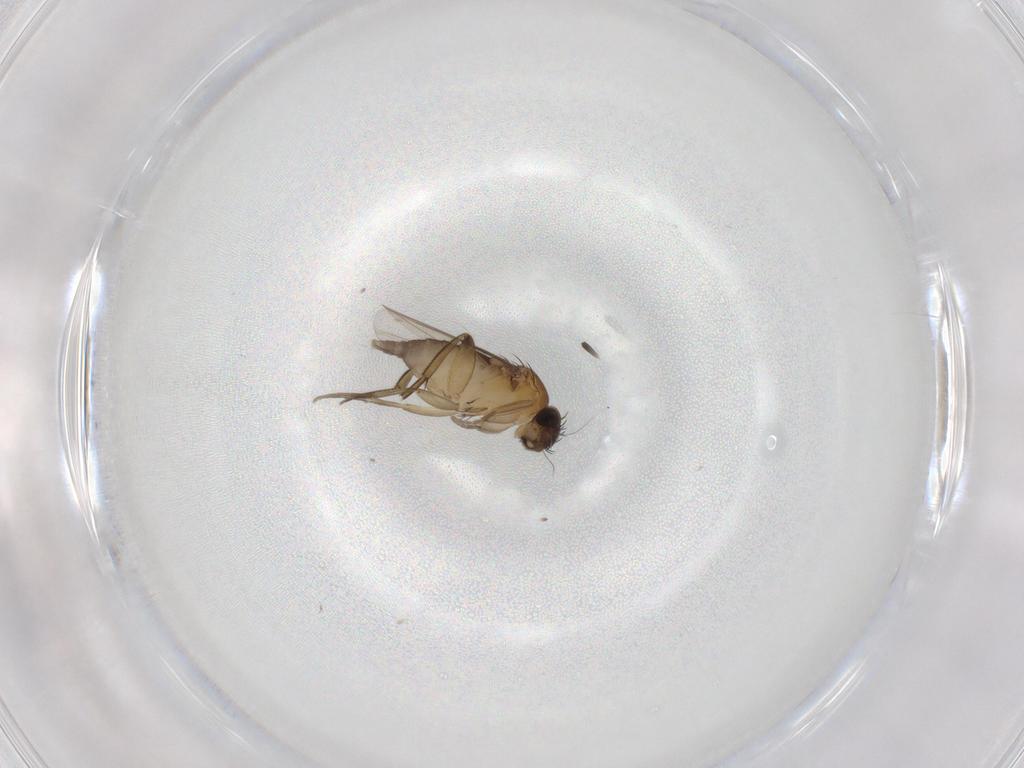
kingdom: Animalia
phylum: Arthropoda
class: Insecta
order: Diptera
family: Phoridae
